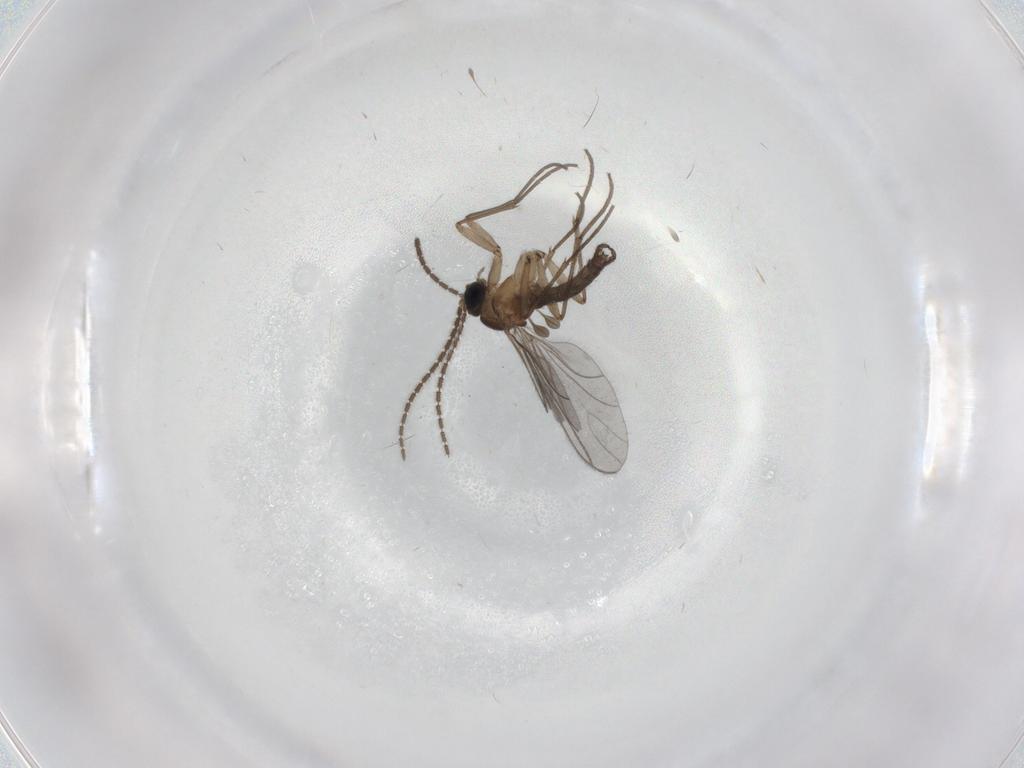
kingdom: Animalia
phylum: Arthropoda
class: Insecta
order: Diptera
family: Sciaridae
